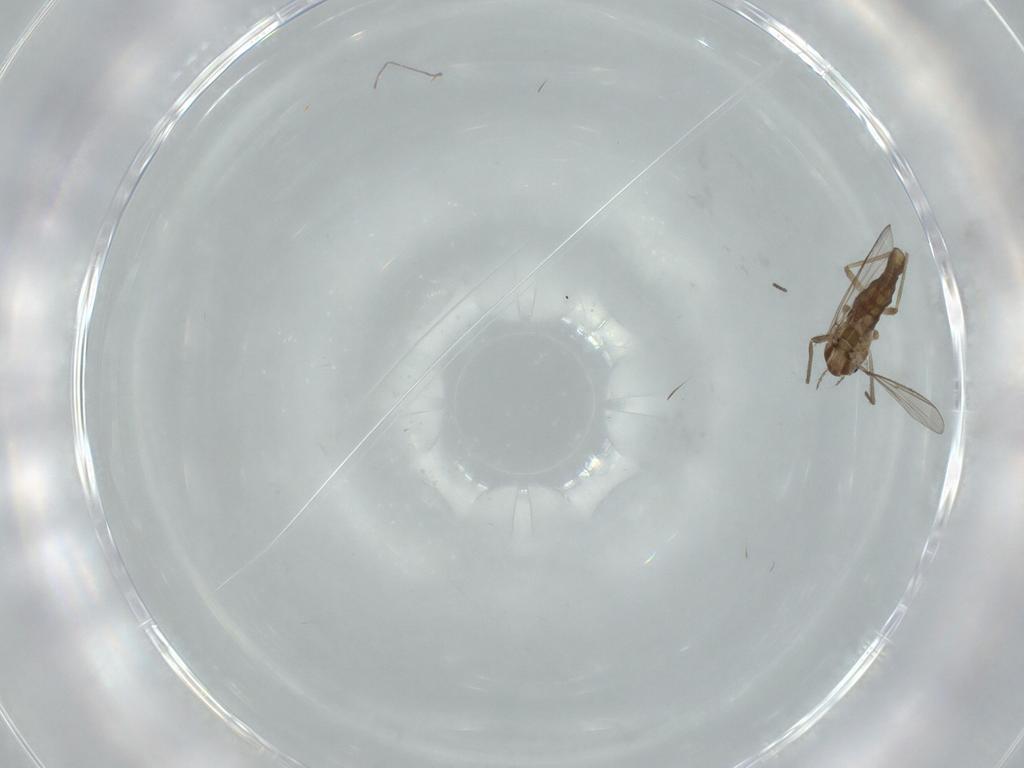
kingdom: Animalia
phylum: Arthropoda
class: Insecta
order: Diptera
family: Chironomidae
